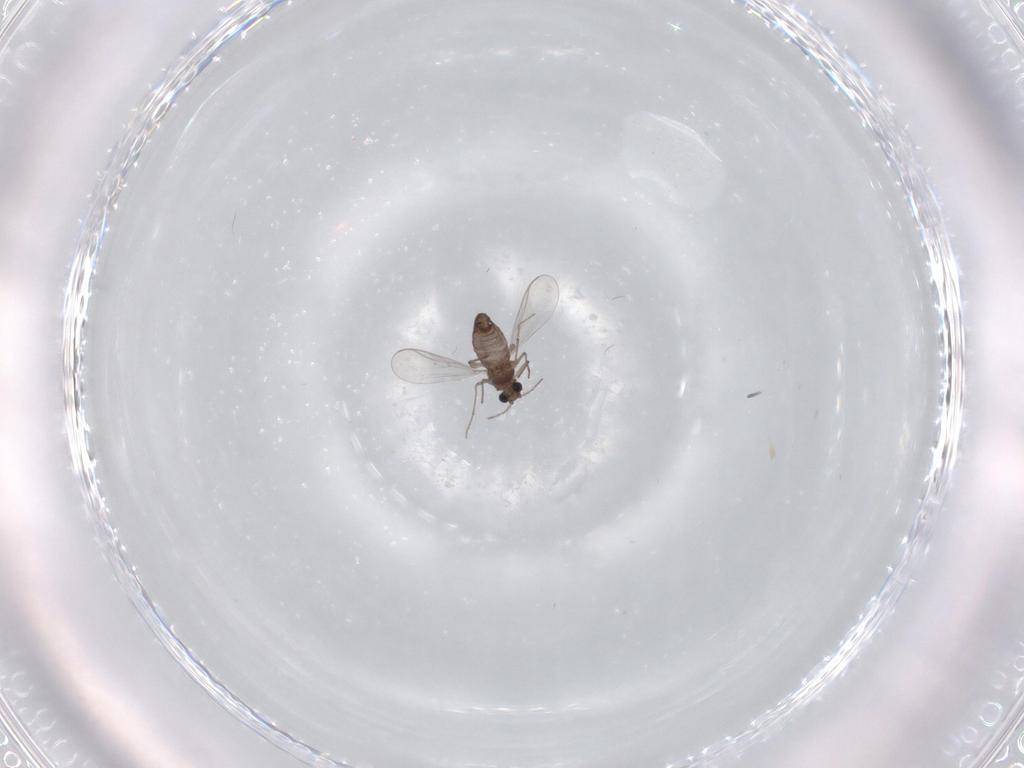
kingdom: Animalia
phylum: Arthropoda
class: Insecta
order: Diptera
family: Chironomidae
